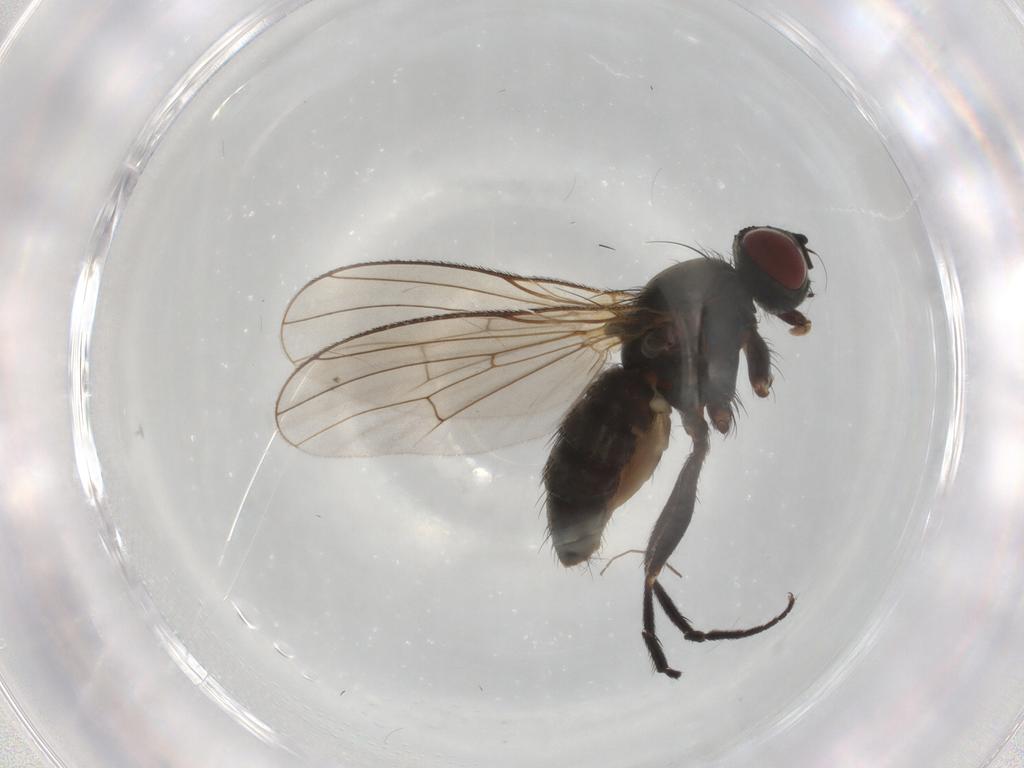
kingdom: Animalia
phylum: Arthropoda
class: Insecta
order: Diptera
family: Muscidae
